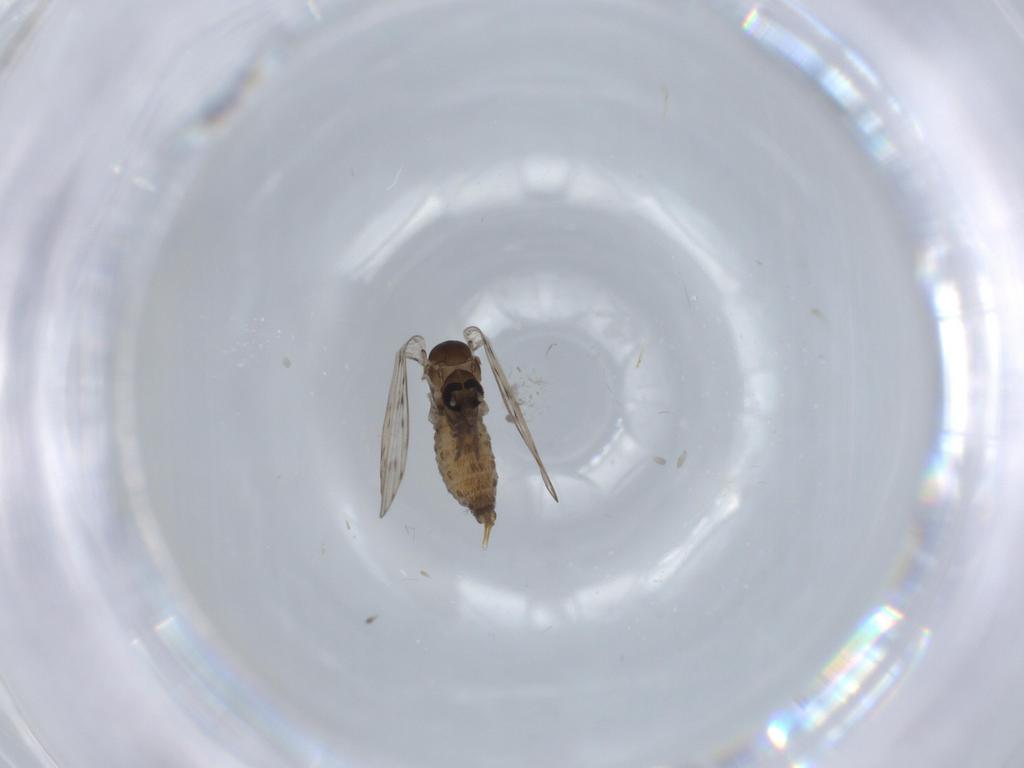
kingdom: Animalia
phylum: Arthropoda
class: Insecta
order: Diptera
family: Psychodidae
